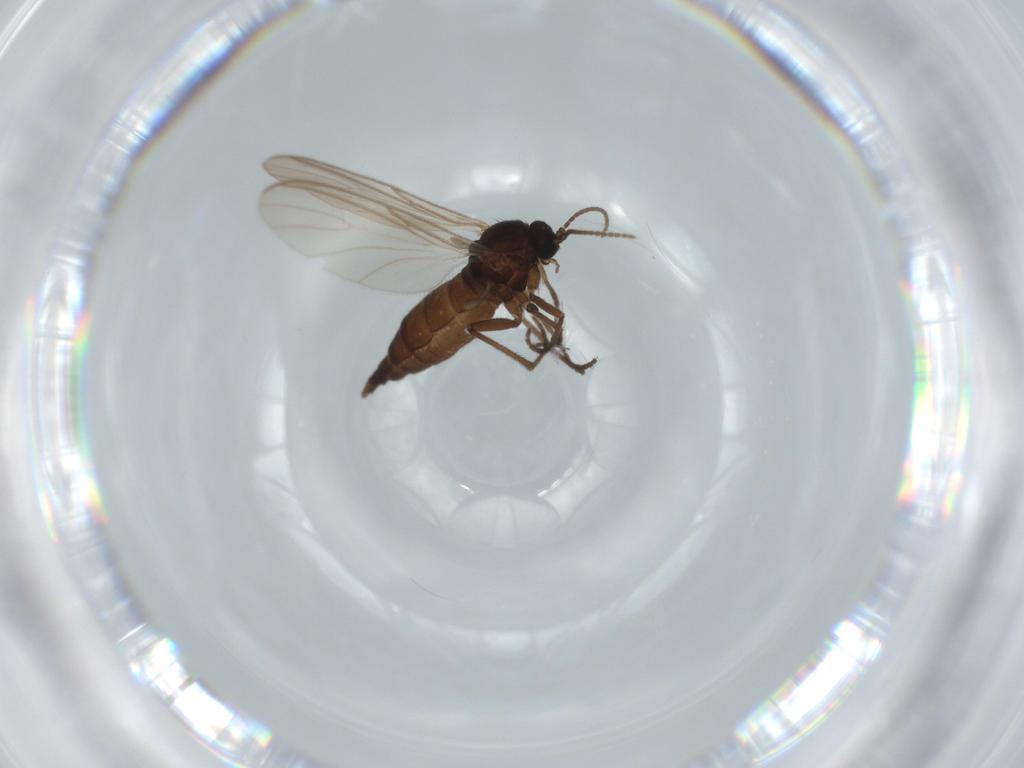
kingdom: Animalia
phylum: Arthropoda
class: Insecta
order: Diptera
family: Sciaridae
